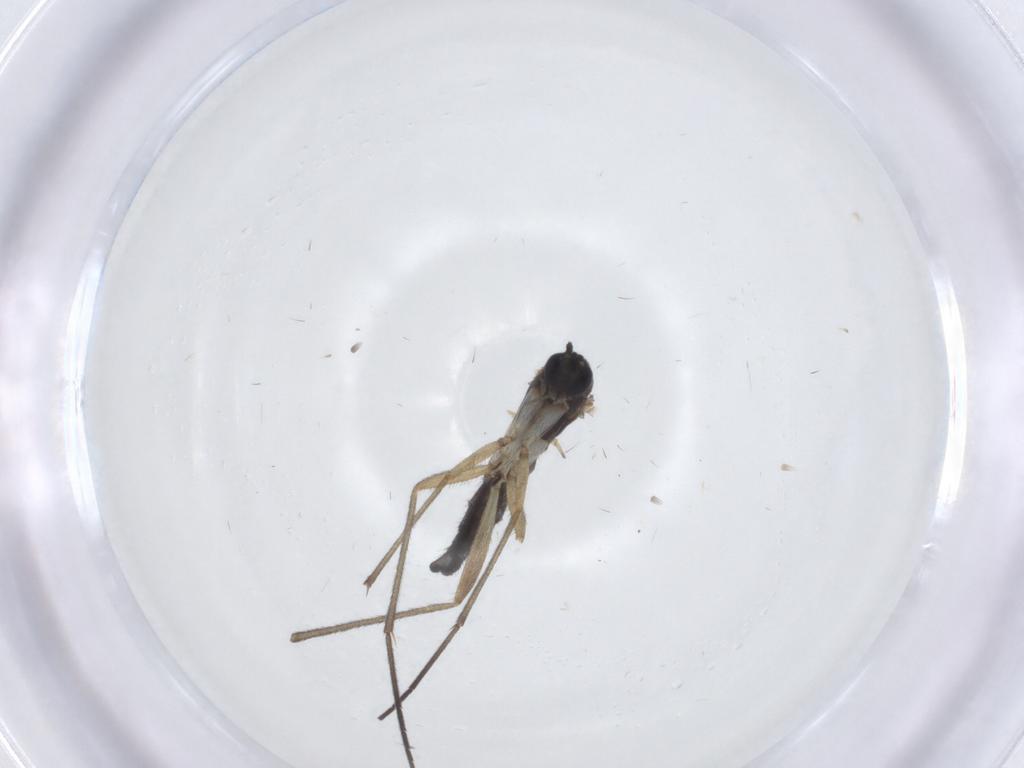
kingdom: Animalia
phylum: Arthropoda
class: Insecta
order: Diptera
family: Sciaridae
